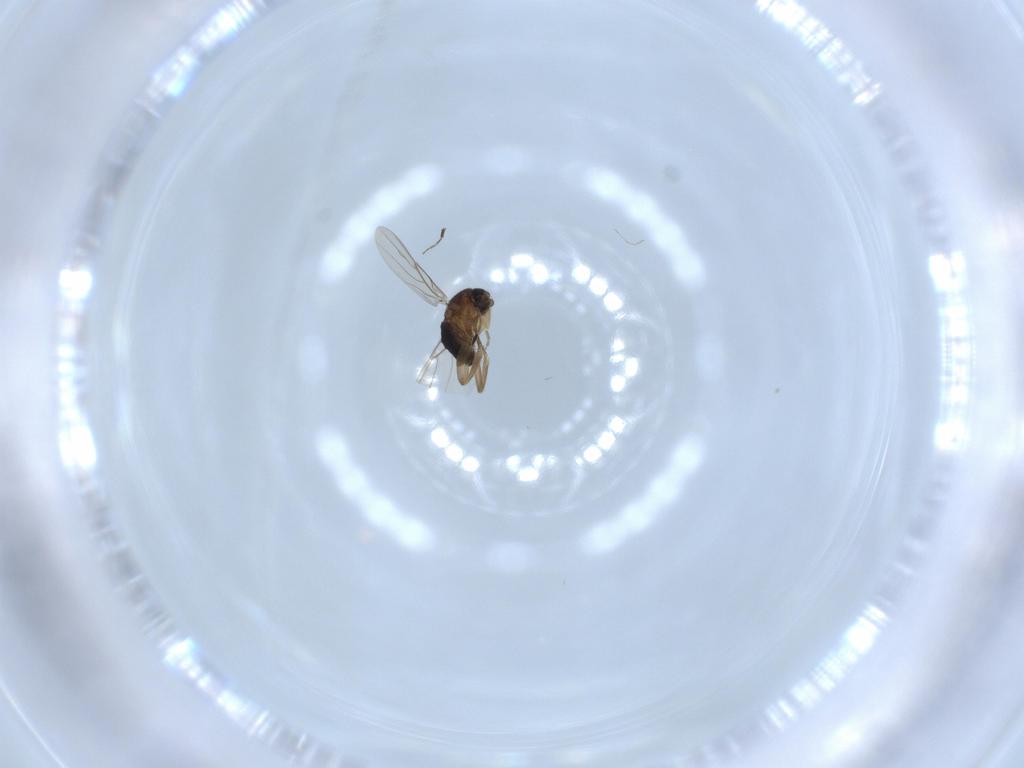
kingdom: Animalia
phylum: Arthropoda
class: Insecta
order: Diptera
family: Phoridae
